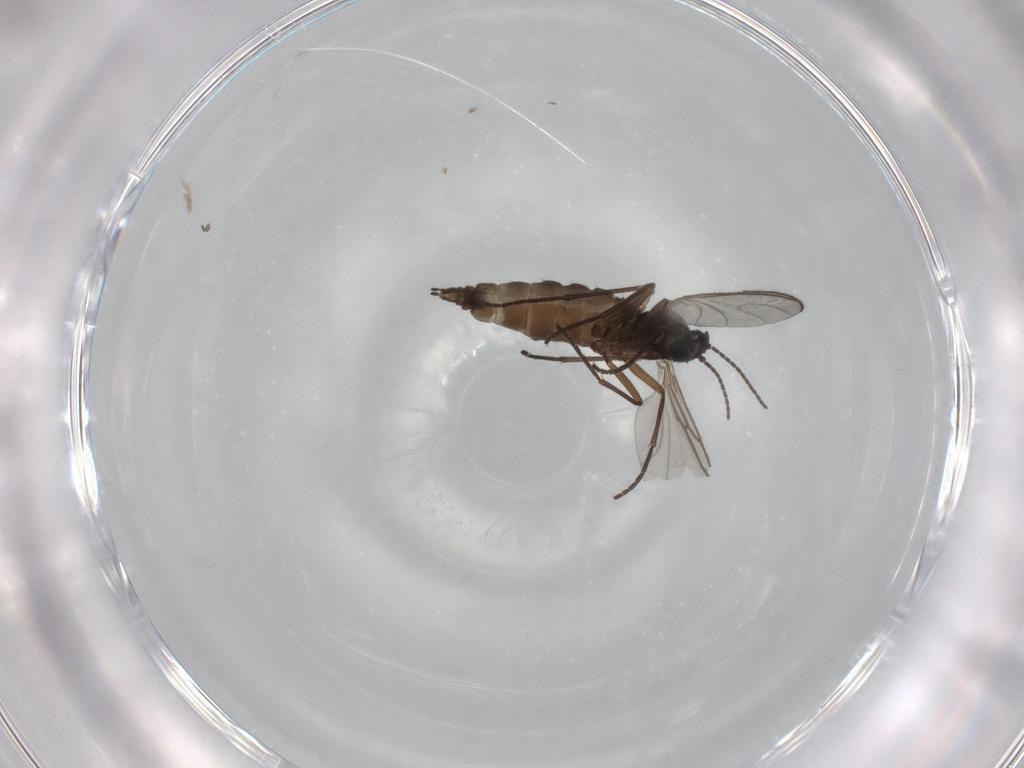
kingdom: Animalia
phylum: Arthropoda
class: Insecta
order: Diptera
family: Sciaridae
